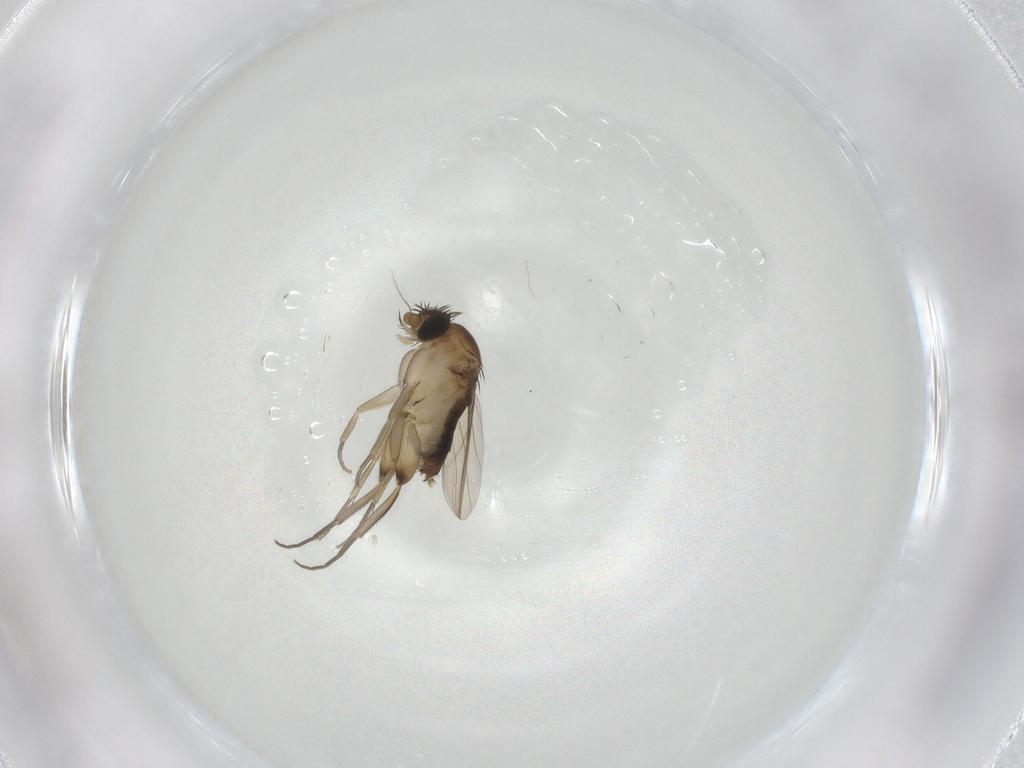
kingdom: Animalia
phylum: Arthropoda
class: Insecta
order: Diptera
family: Phoridae
